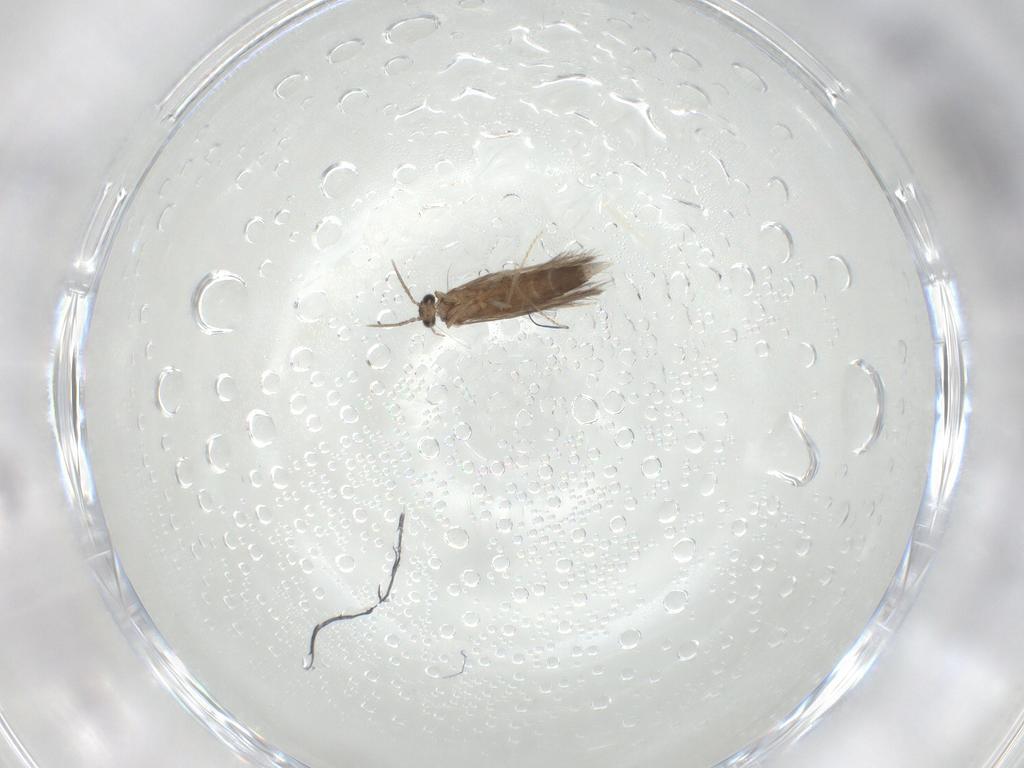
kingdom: Animalia
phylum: Arthropoda
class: Insecta
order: Trichoptera
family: Hydroptilidae
